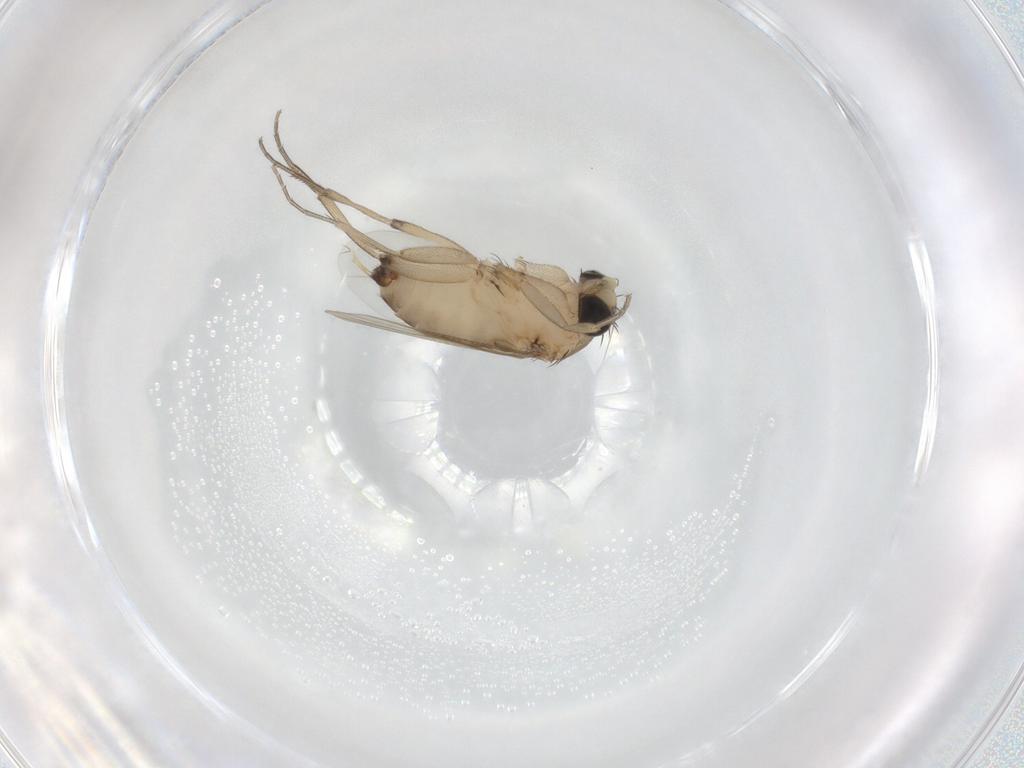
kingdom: Animalia
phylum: Arthropoda
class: Insecta
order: Diptera
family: Phoridae
